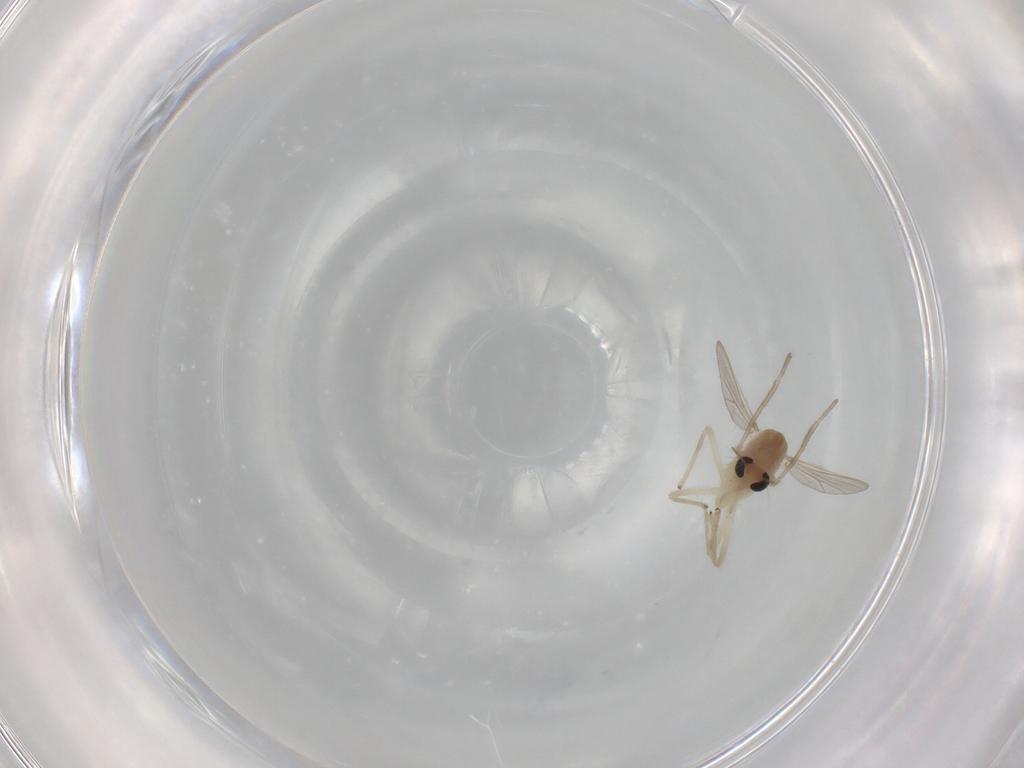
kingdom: Animalia
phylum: Arthropoda
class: Insecta
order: Diptera
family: Chironomidae
